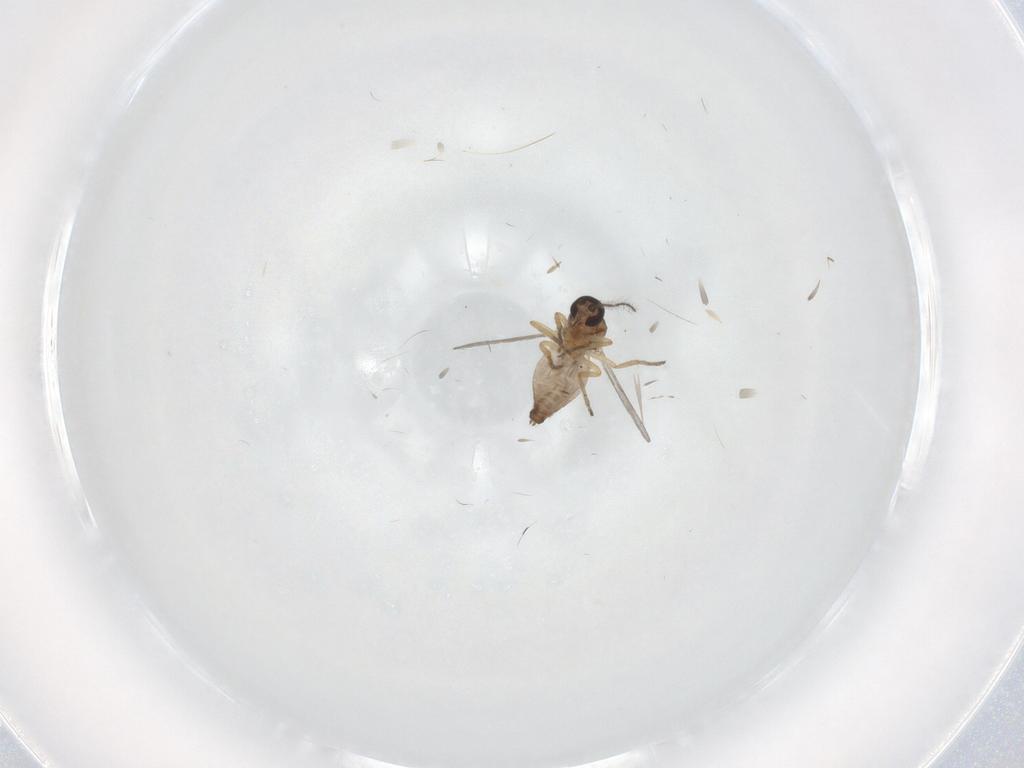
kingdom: Animalia
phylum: Arthropoda
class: Insecta
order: Diptera
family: Ceratopogonidae
